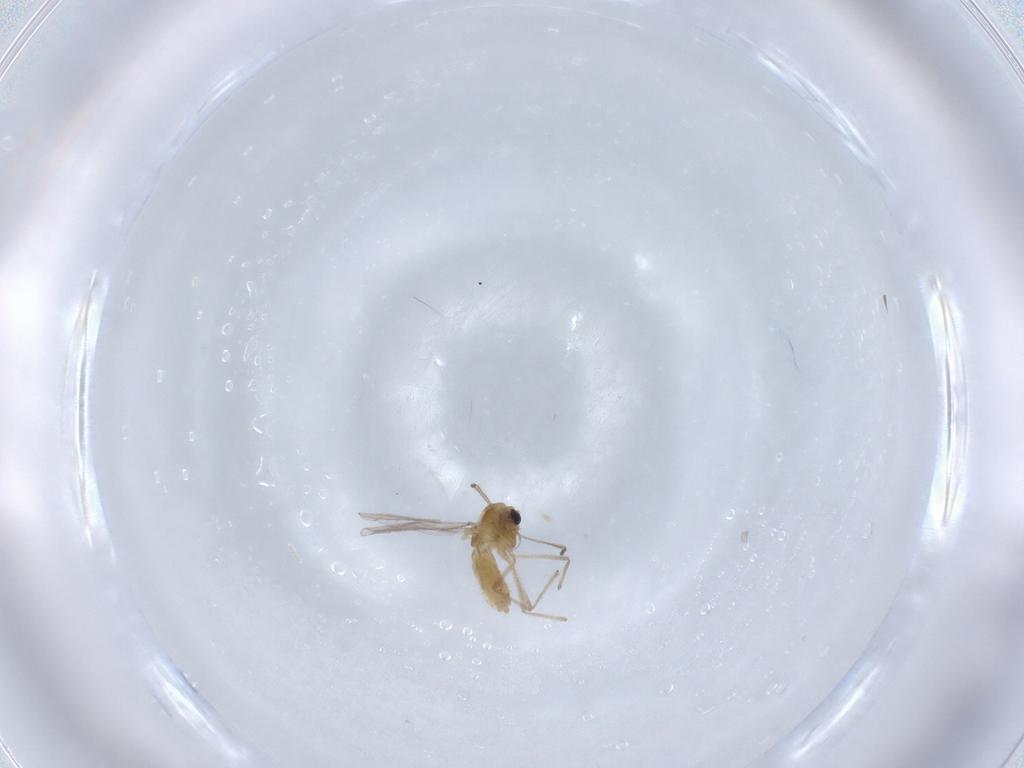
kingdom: Animalia
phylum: Arthropoda
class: Insecta
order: Diptera
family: Chironomidae
